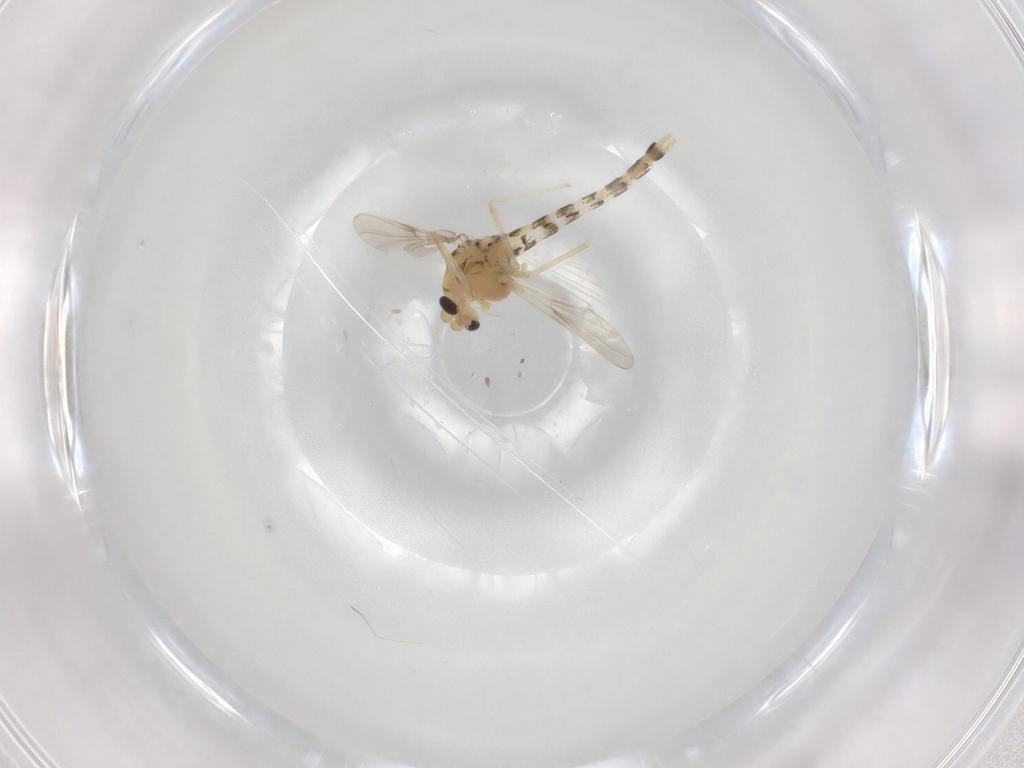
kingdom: Animalia
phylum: Arthropoda
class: Insecta
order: Diptera
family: Chironomidae
